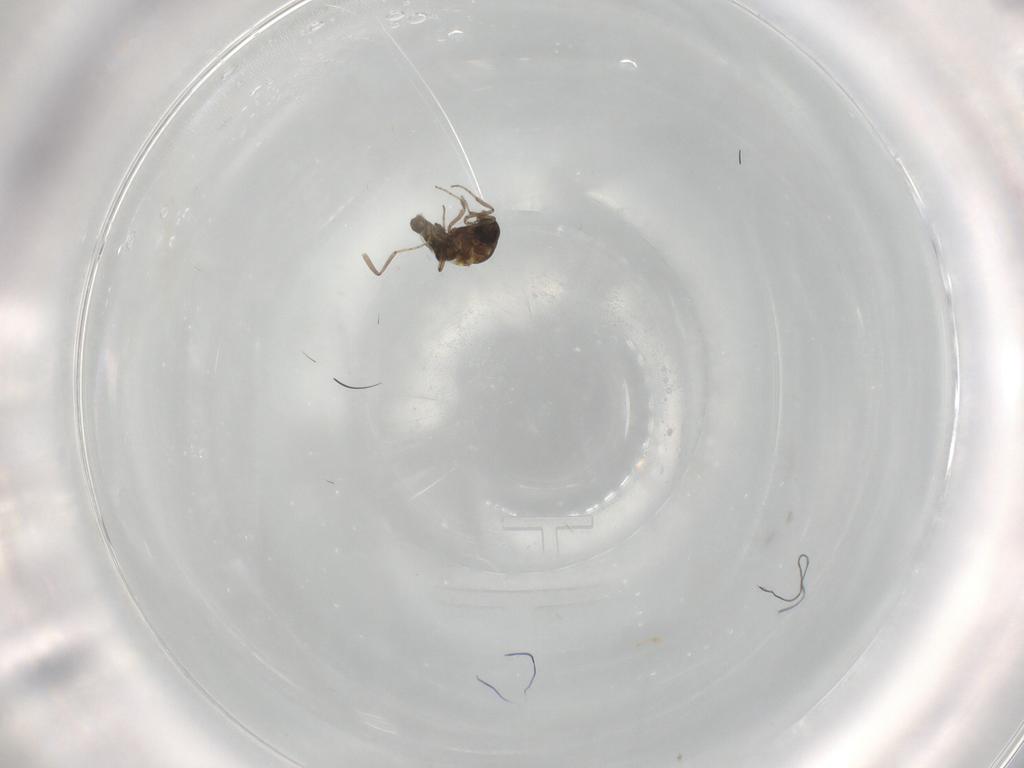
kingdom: Animalia
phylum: Arthropoda
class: Insecta
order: Diptera
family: Ceratopogonidae
